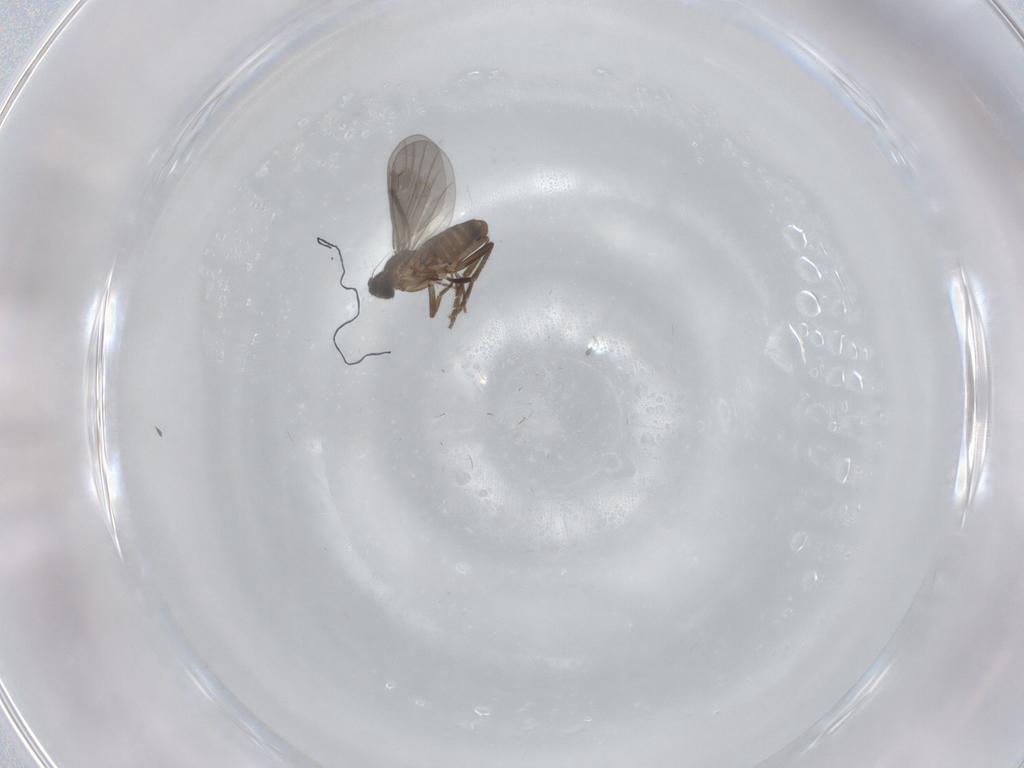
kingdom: Animalia
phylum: Arthropoda
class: Insecta
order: Diptera
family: Phoridae
